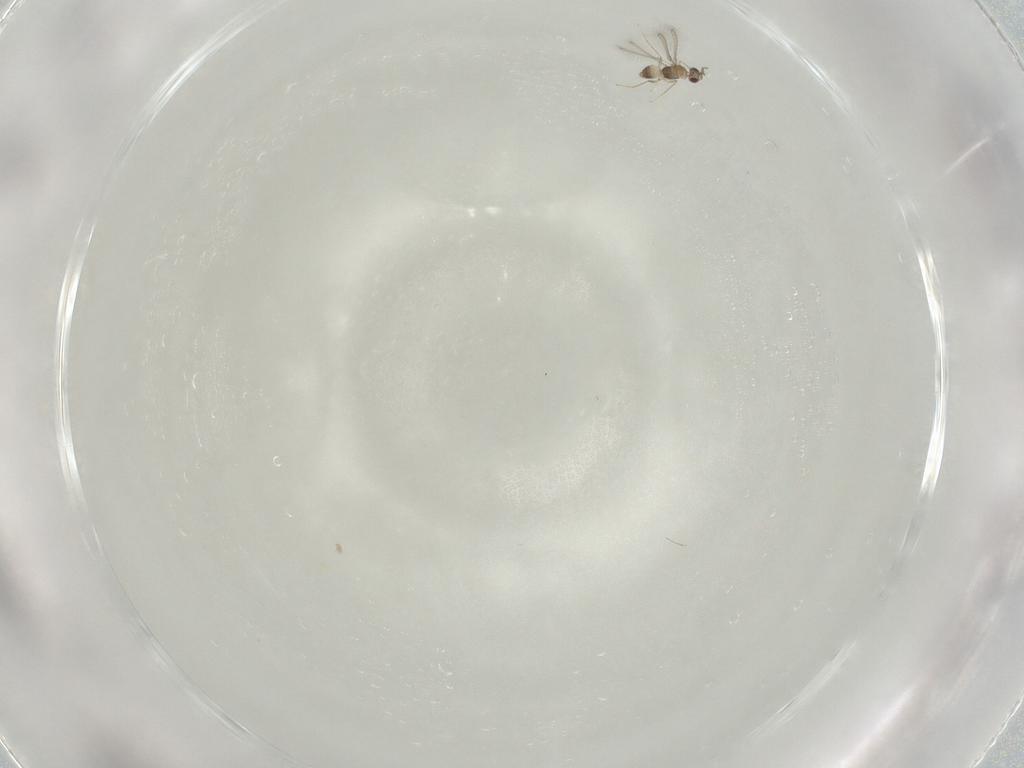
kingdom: Animalia
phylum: Arthropoda
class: Insecta
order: Hymenoptera
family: Mymaridae
